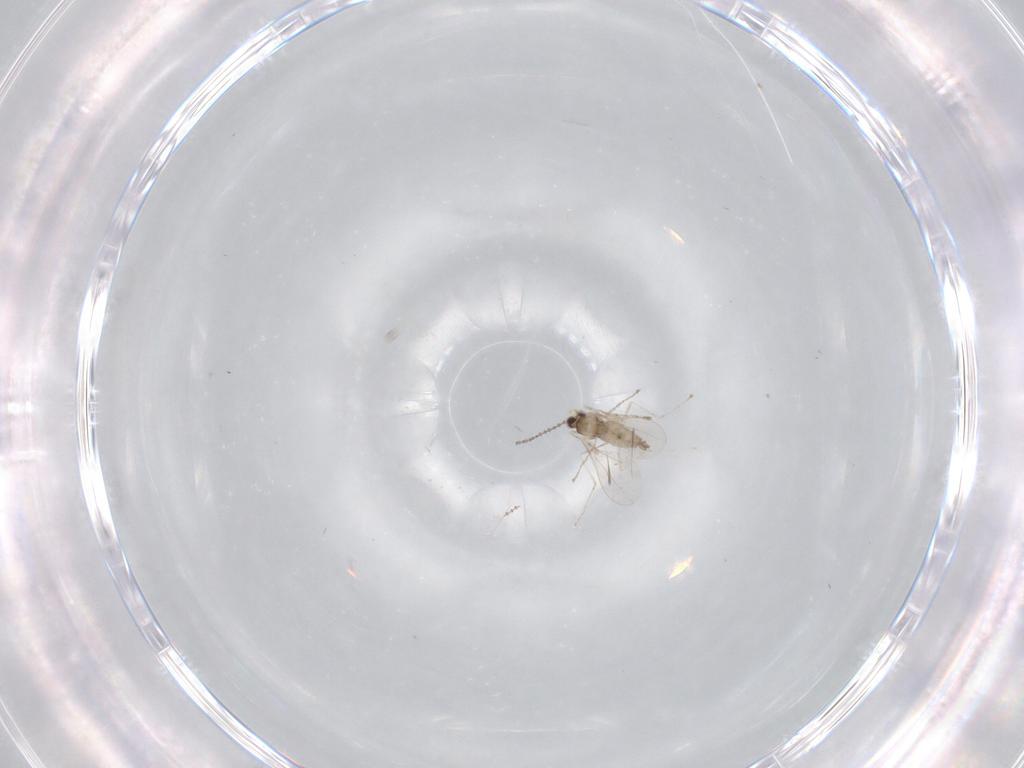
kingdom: Animalia
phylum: Arthropoda
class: Insecta
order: Diptera
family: Cecidomyiidae
